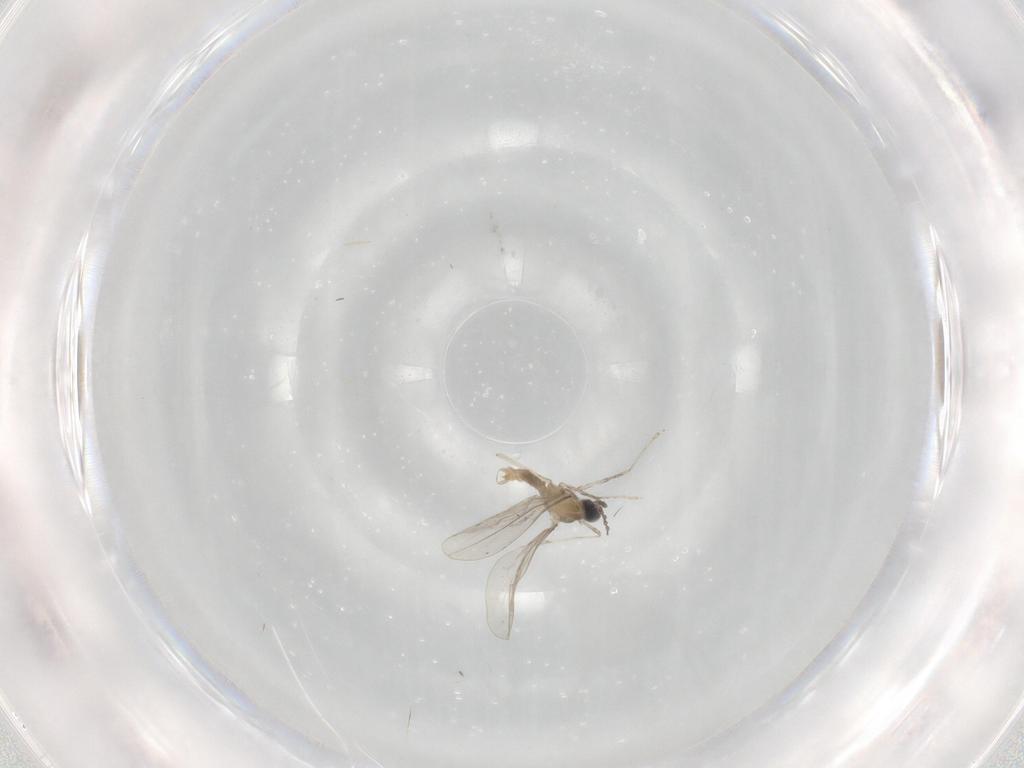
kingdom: Animalia
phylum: Arthropoda
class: Insecta
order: Diptera
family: Cecidomyiidae
